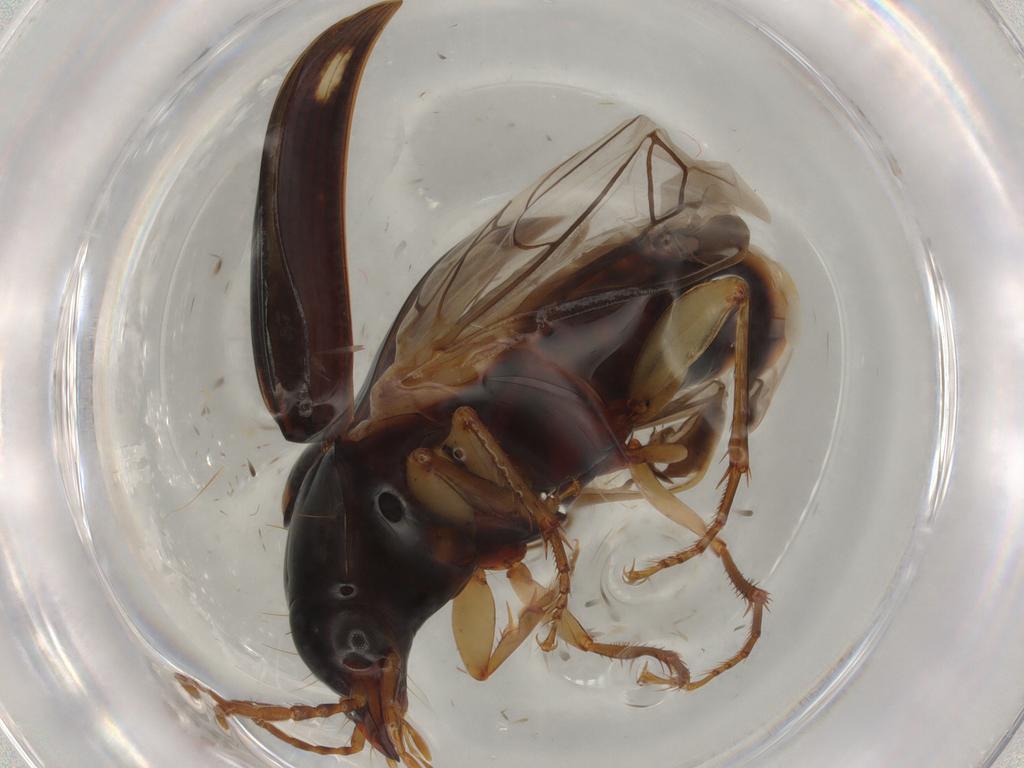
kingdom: Animalia
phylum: Arthropoda
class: Insecta
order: Coleoptera
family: Carabidae
